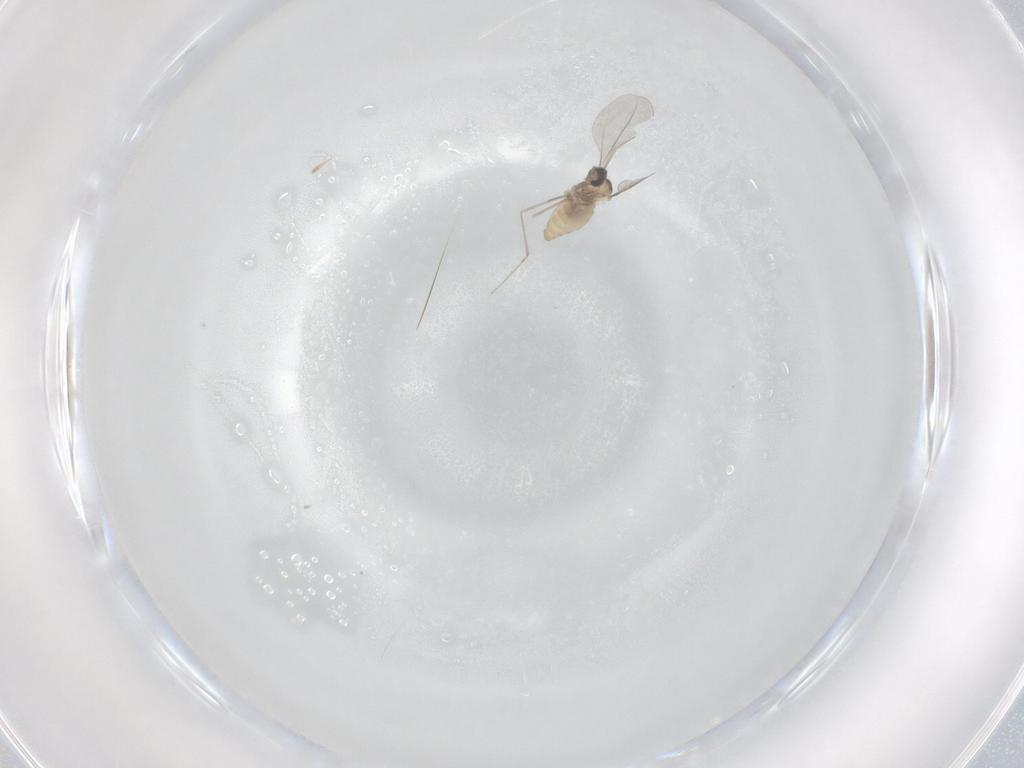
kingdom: Animalia
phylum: Arthropoda
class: Insecta
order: Diptera
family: Cecidomyiidae
